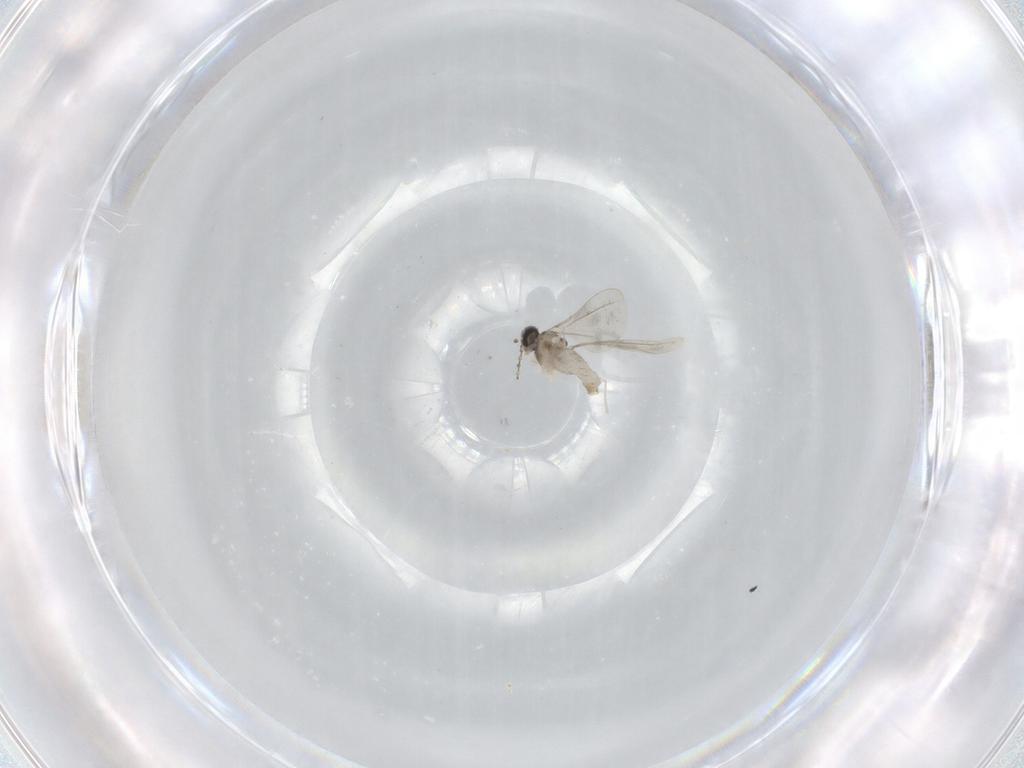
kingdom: Animalia
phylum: Arthropoda
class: Insecta
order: Diptera
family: Cecidomyiidae
